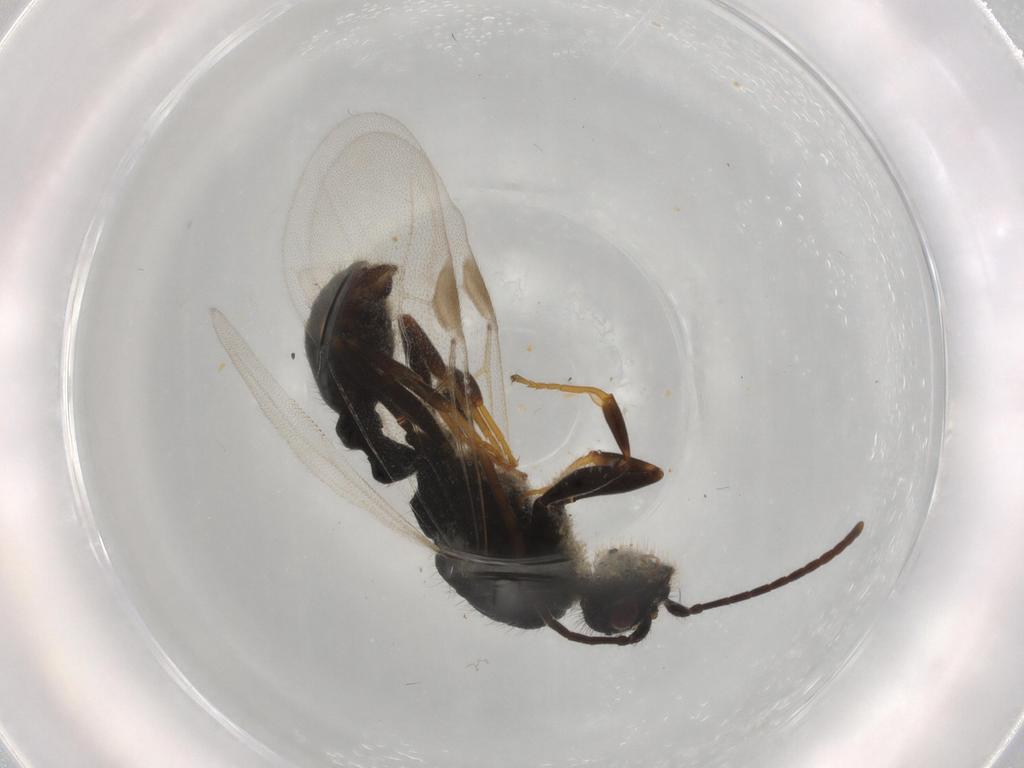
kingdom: Animalia
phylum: Arthropoda
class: Insecta
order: Hymenoptera
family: Formicidae
